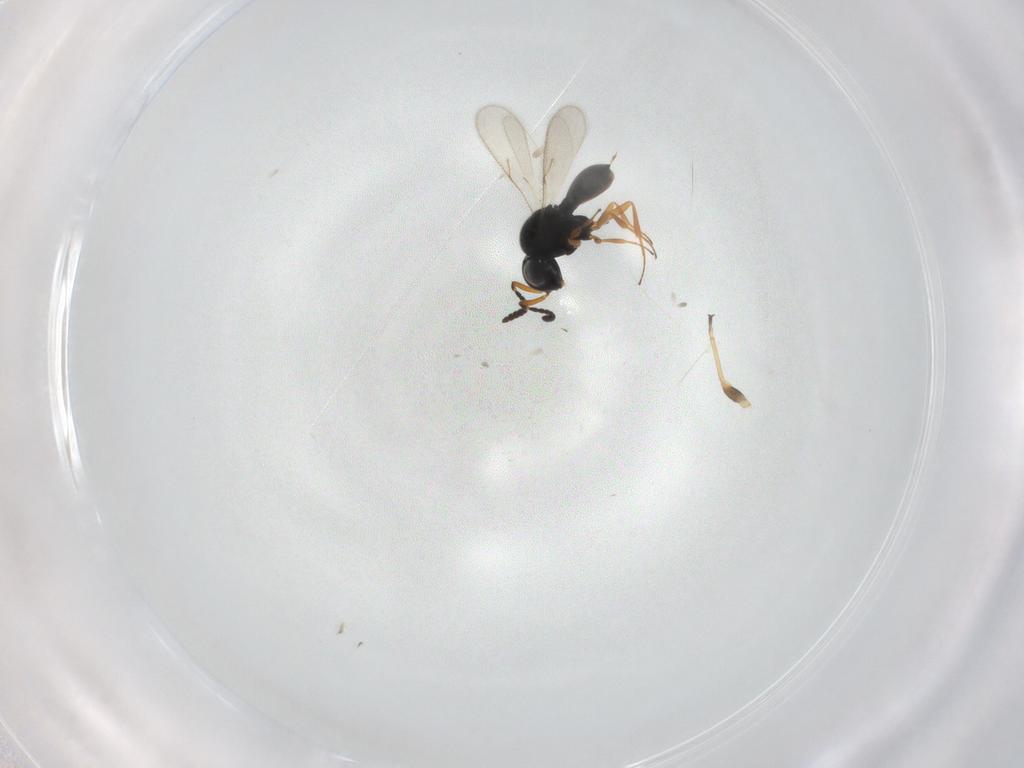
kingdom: Animalia
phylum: Arthropoda
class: Insecta
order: Hymenoptera
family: Scelionidae
